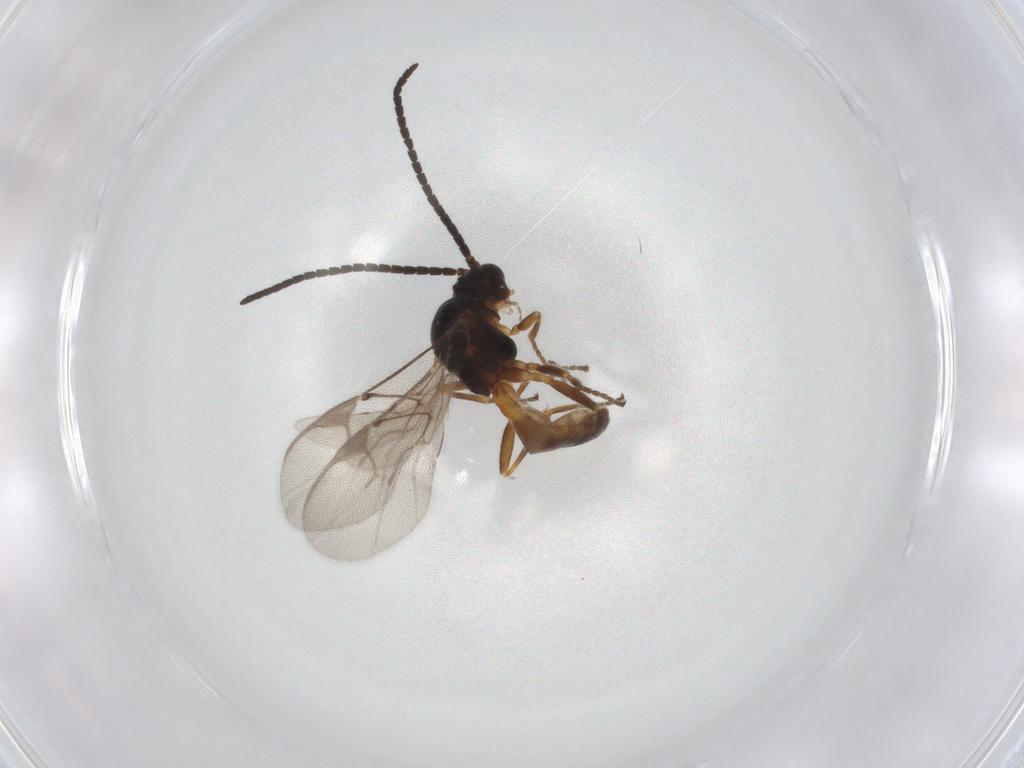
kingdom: Animalia
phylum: Arthropoda
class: Insecta
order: Hymenoptera
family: Braconidae
